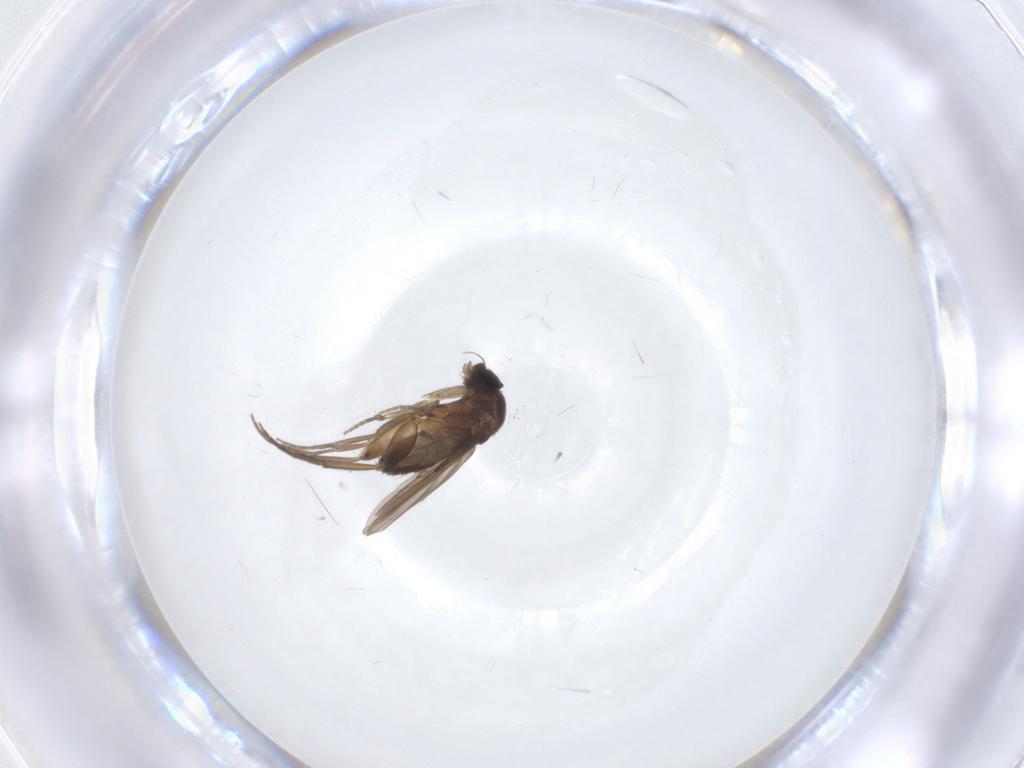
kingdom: Animalia
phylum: Arthropoda
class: Insecta
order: Diptera
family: Phoridae
